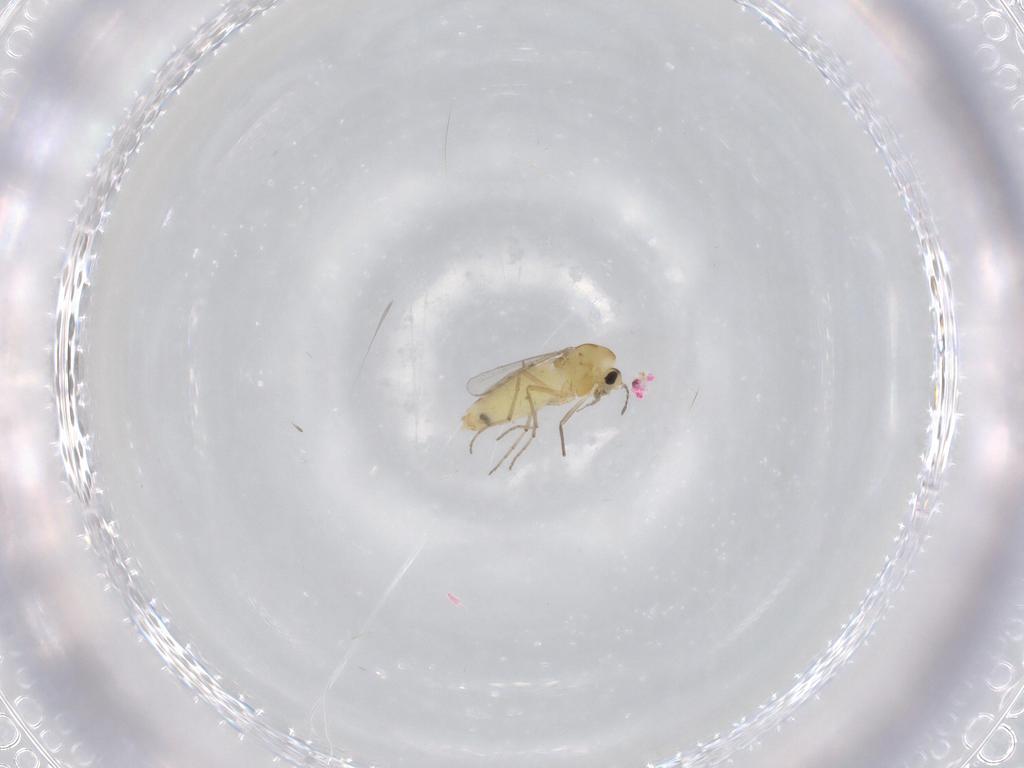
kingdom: Animalia
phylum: Arthropoda
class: Insecta
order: Diptera
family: Chironomidae
